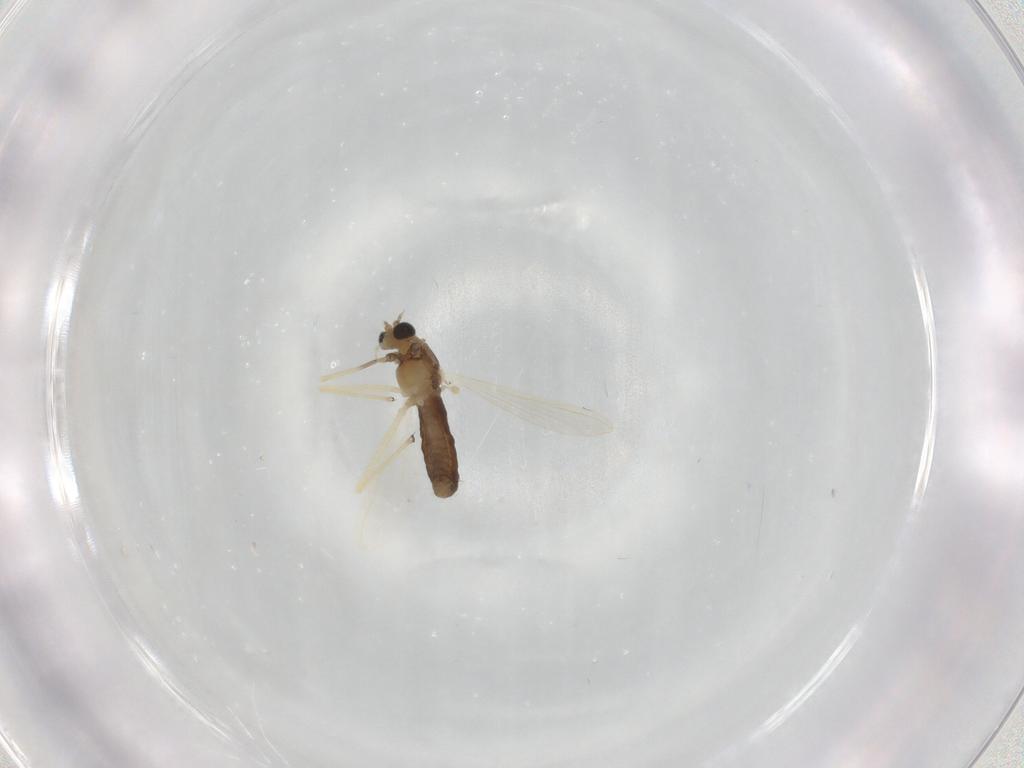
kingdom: Animalia
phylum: Arthropoda
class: Insecta
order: Diptera
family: Chironomidae
